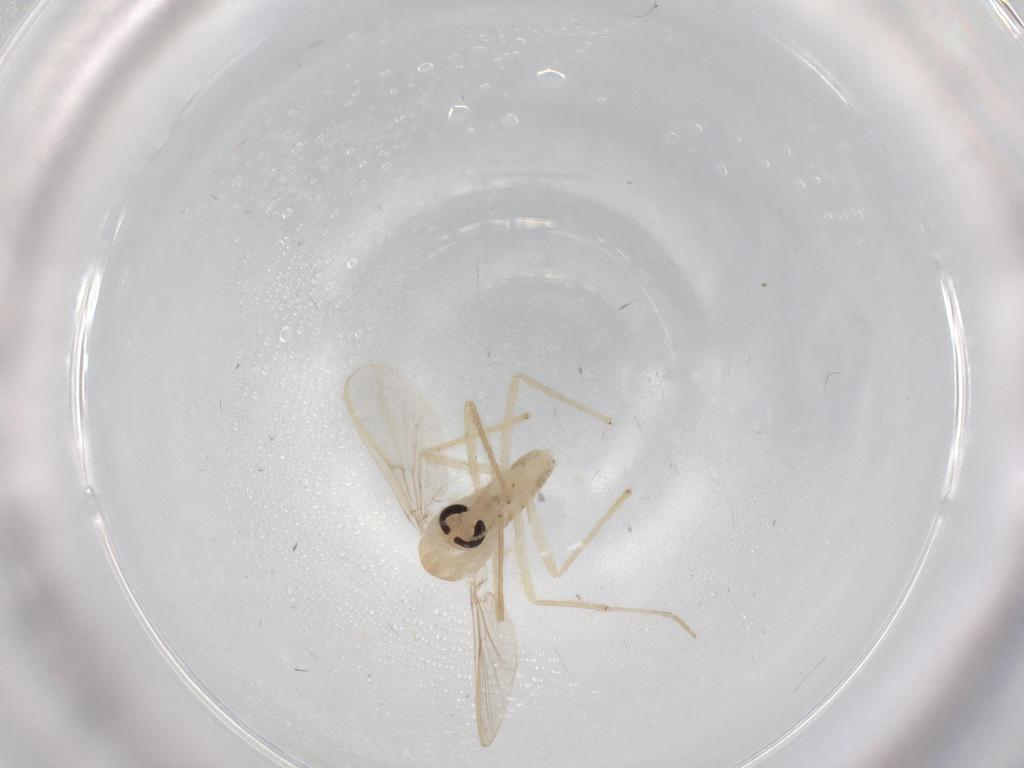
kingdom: Animalia
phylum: Arthropoda
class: Insecta
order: Diptera
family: Chironomidae
